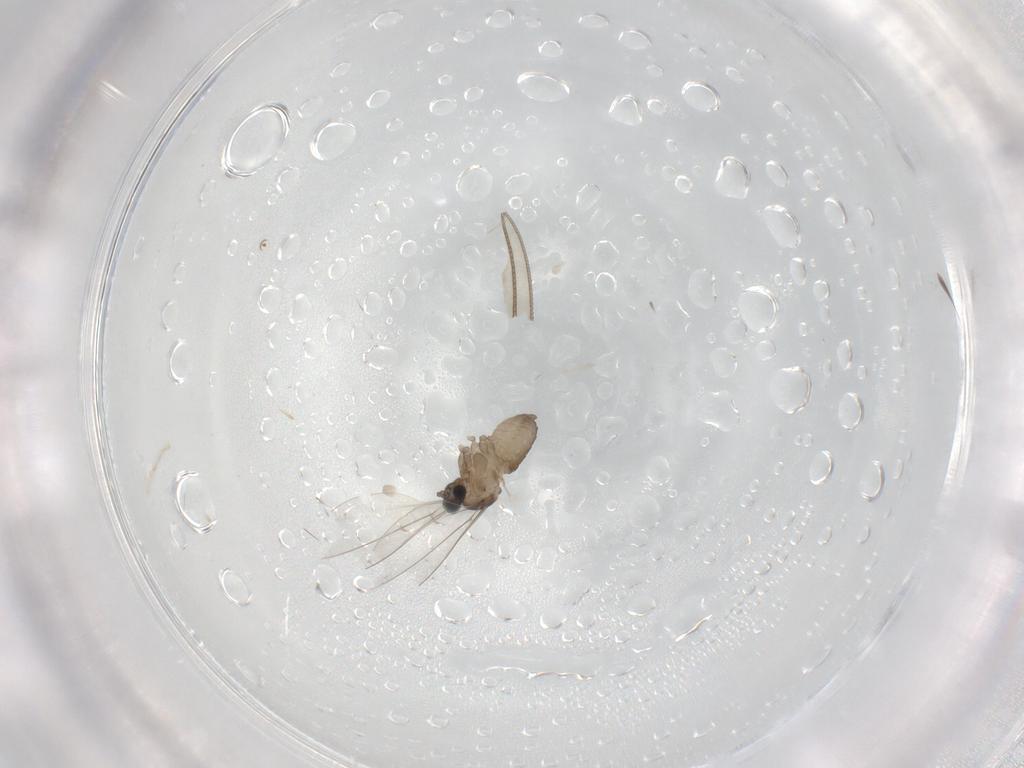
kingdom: Animalia
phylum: Arthropoda
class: Insecta
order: Diptera
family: Cecidomyiidae
